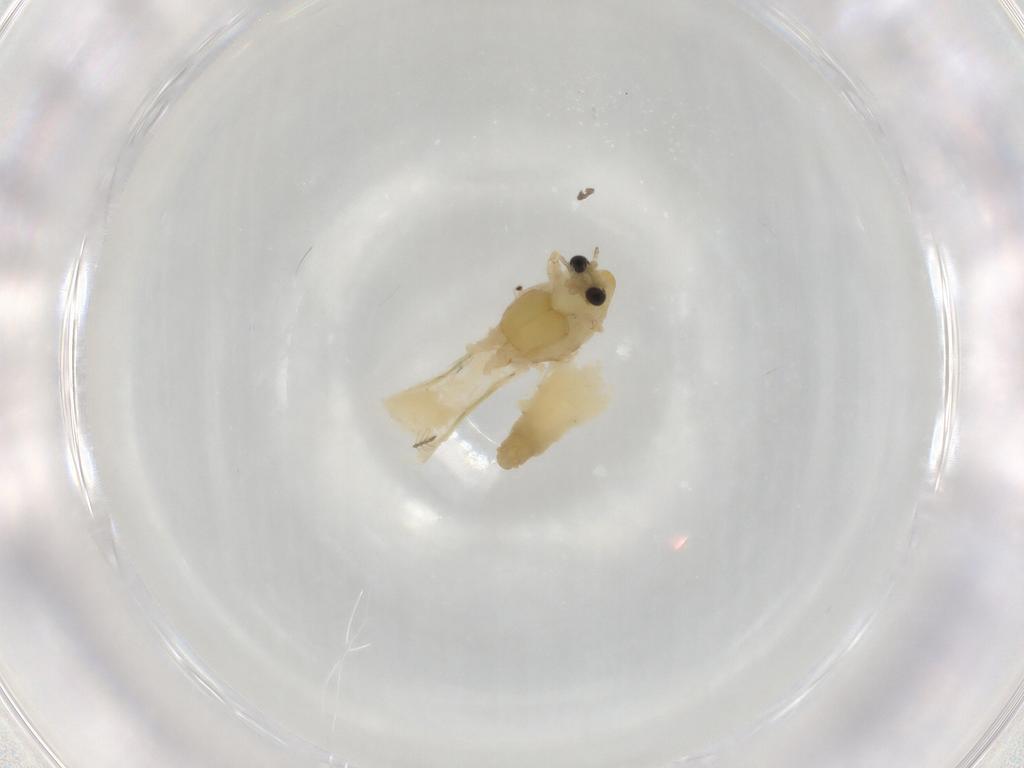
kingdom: Animalia
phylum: Arthropoda
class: Insecta
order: Diptera
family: Chironomidae
